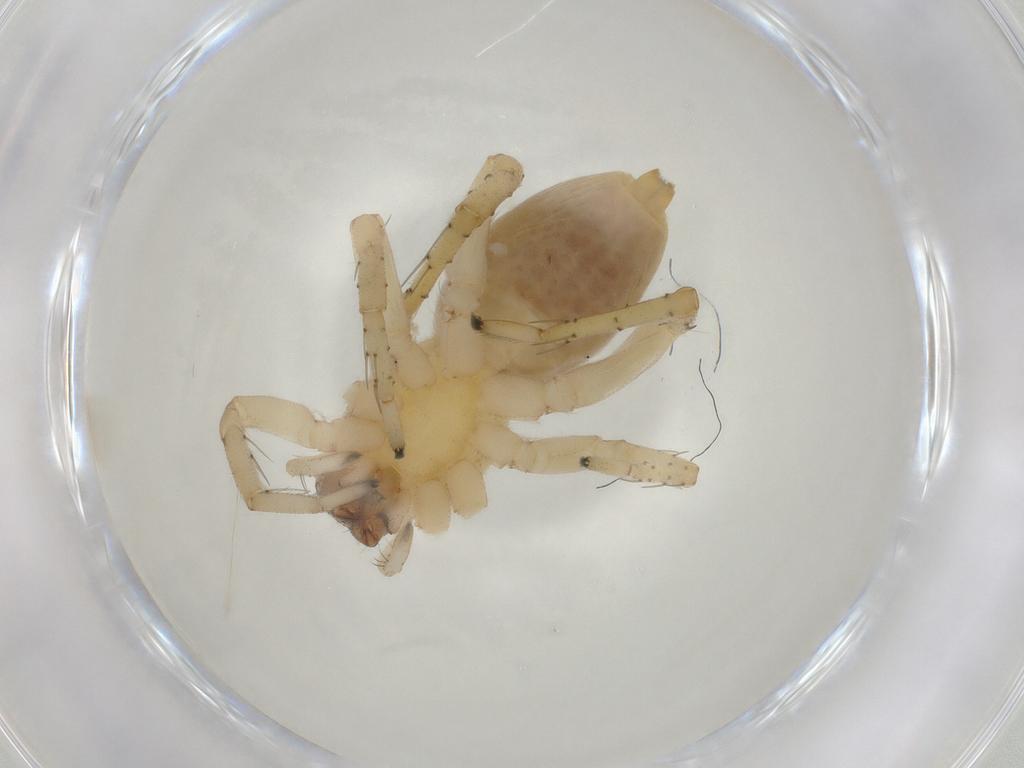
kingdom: Animalia
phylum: Arthropoda
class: Arachnida
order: Araneae
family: Clubionidae
